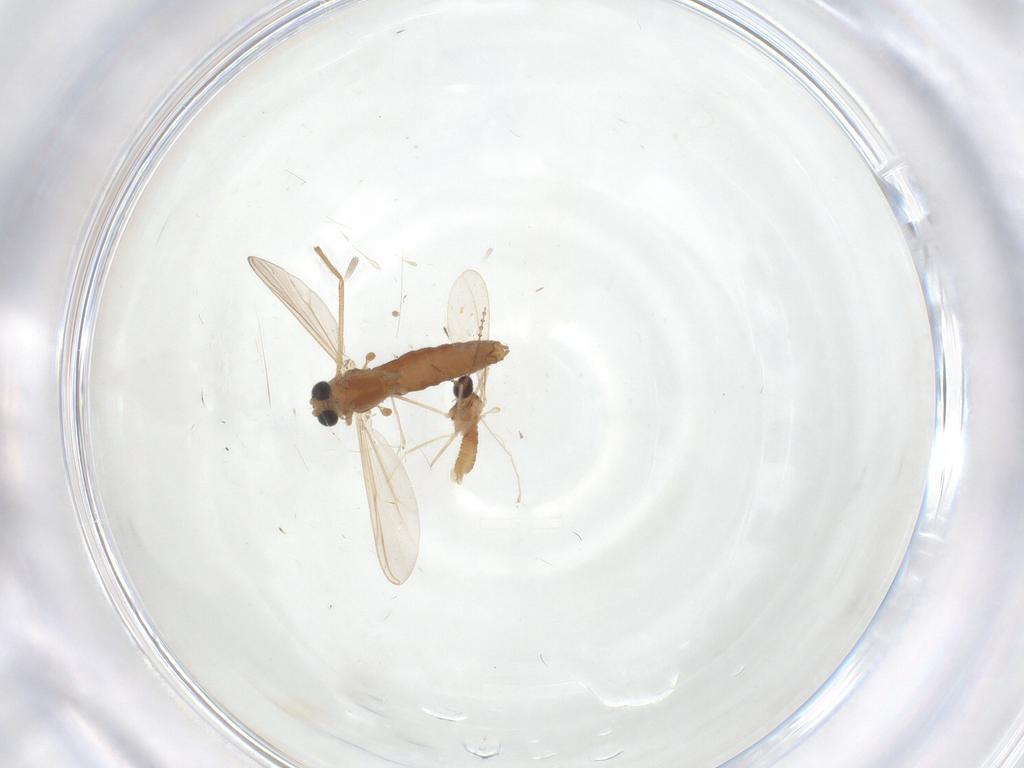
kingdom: Animalia
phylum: Arthropoda
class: Insecta
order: Diptera
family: Chironomidae
